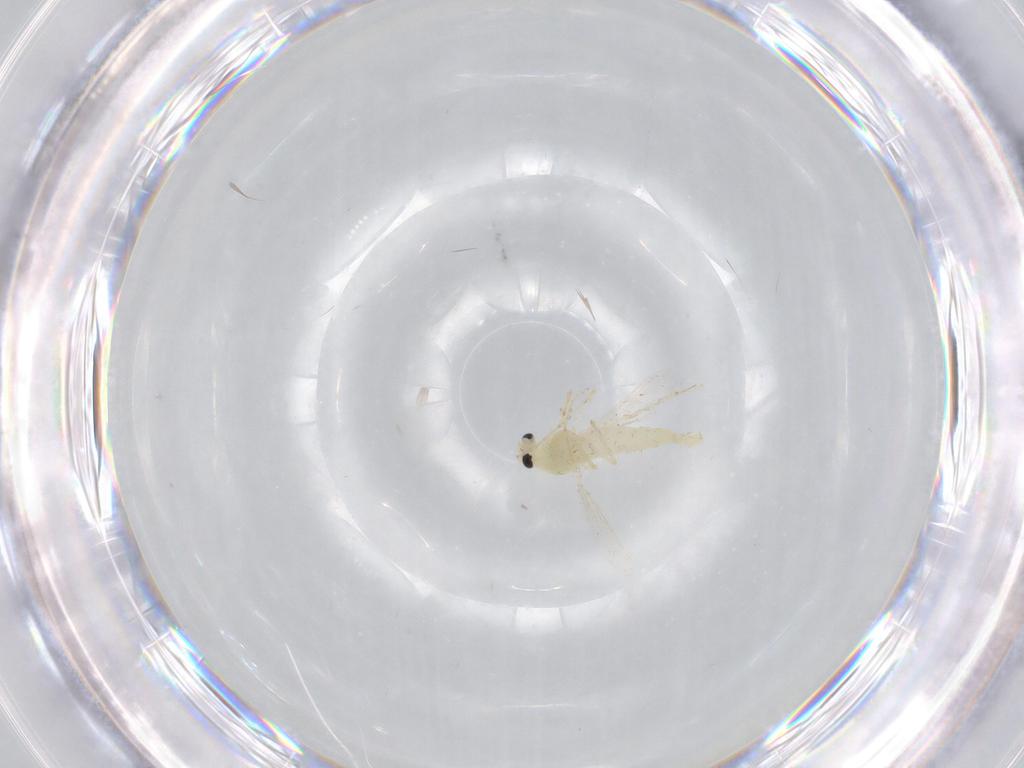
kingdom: Animalia
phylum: Arthropoda
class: Insecta
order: Diptera
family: Chironomidae
